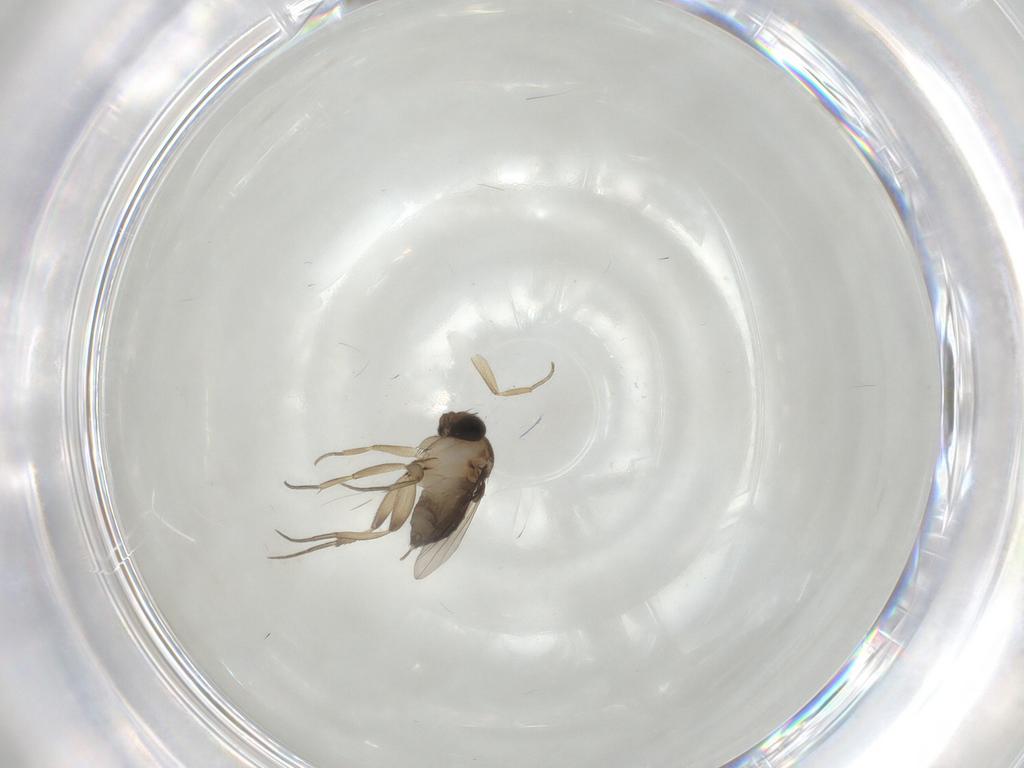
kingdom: Animalia
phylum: Arthropoda
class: Insecta
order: Diptera
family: Phoridae
